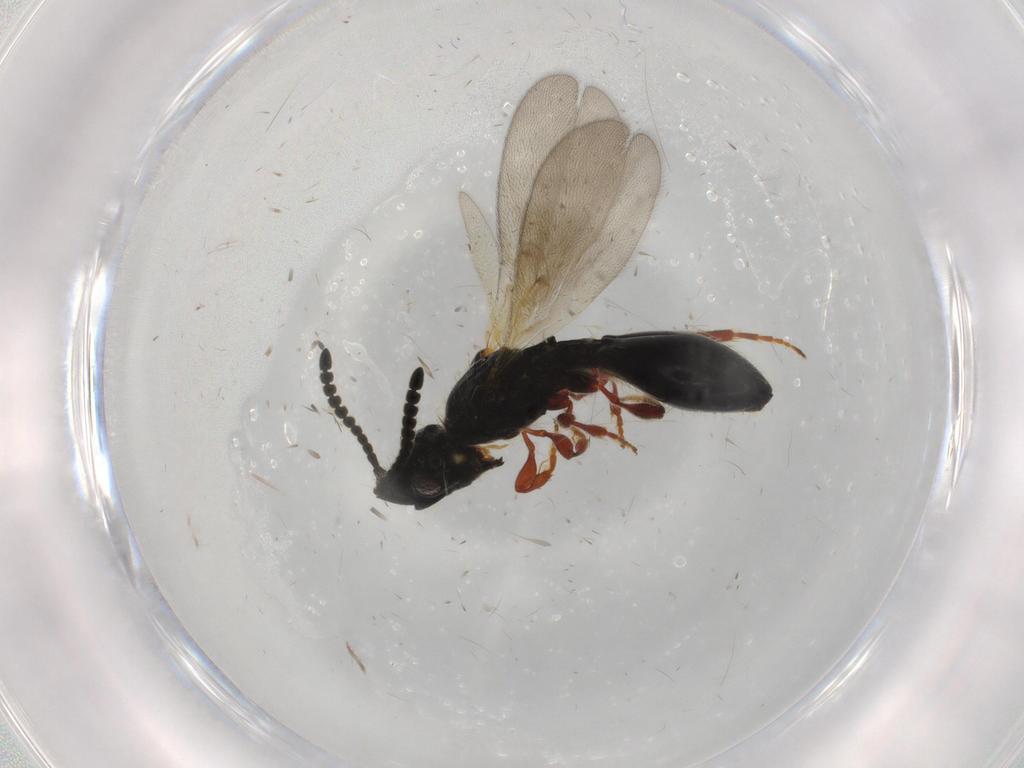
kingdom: Animalia
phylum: Arthropoda
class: Insecta
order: Hymenoptera
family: Diapriidae
